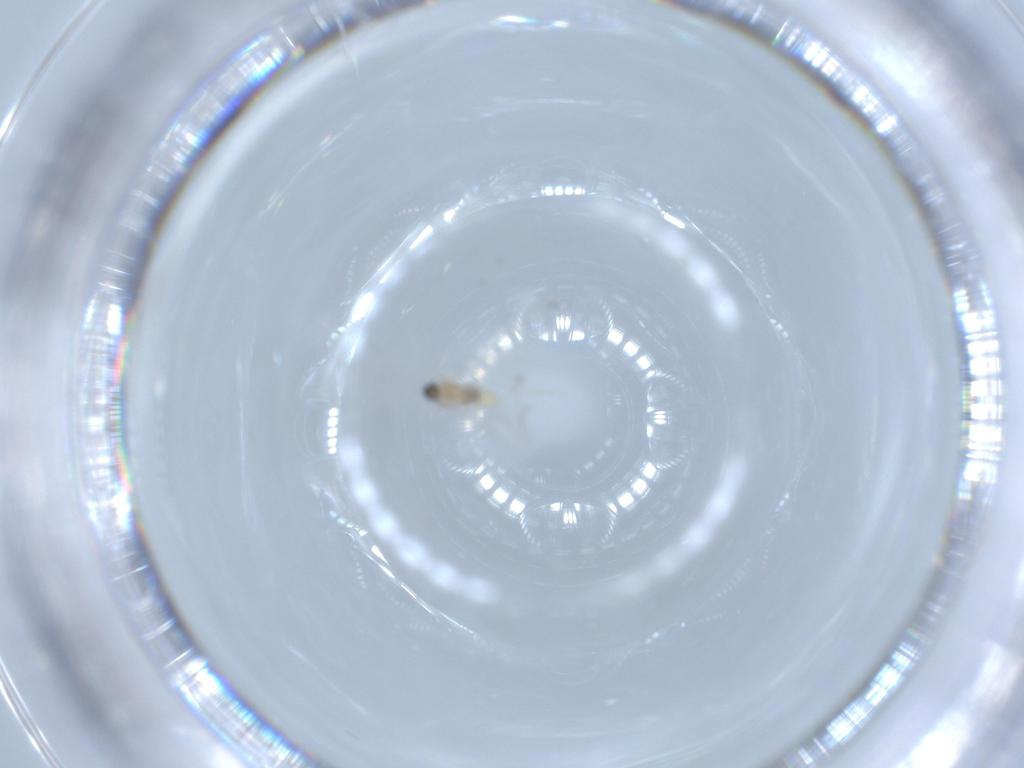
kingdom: Animalia
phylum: Arthropoda
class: Insecta
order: Diptera
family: Cecidomyiidae
